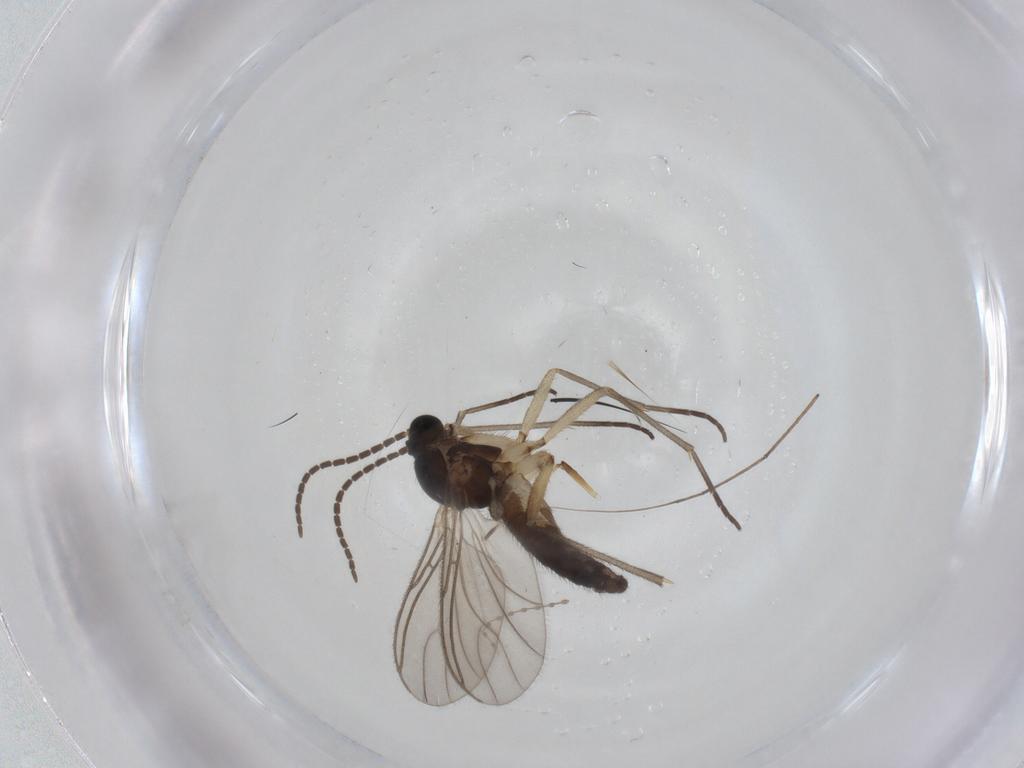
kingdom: Animalia
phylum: Arthropoda
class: Insecta
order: Diptera
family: Sciaridae
